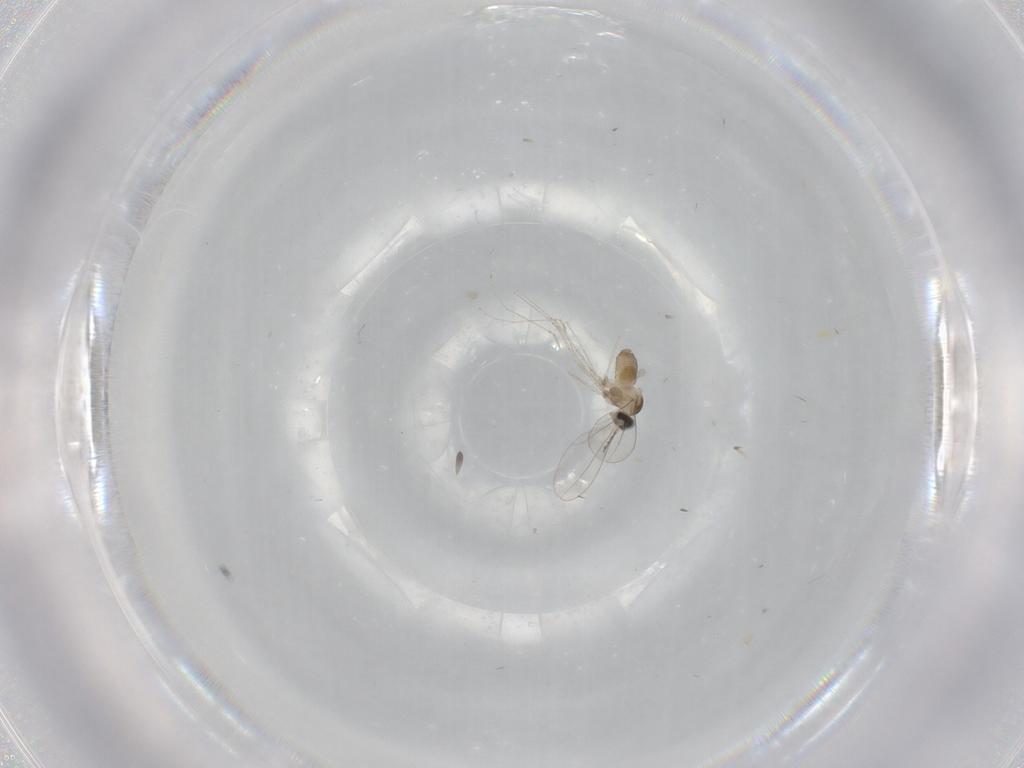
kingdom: Animalia
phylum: Arthropoda
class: Insecta
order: Diptera
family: Cecidomyiidae
